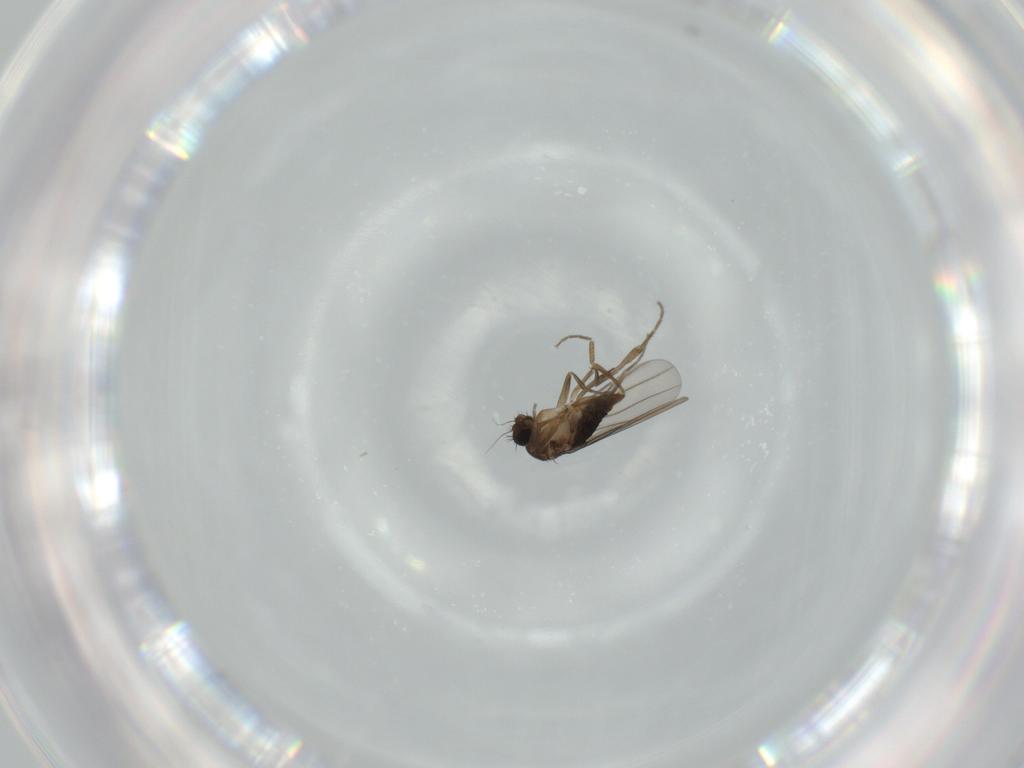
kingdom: Animalia
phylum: Arthropoda
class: Insecta
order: Diptera
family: Phoridae
